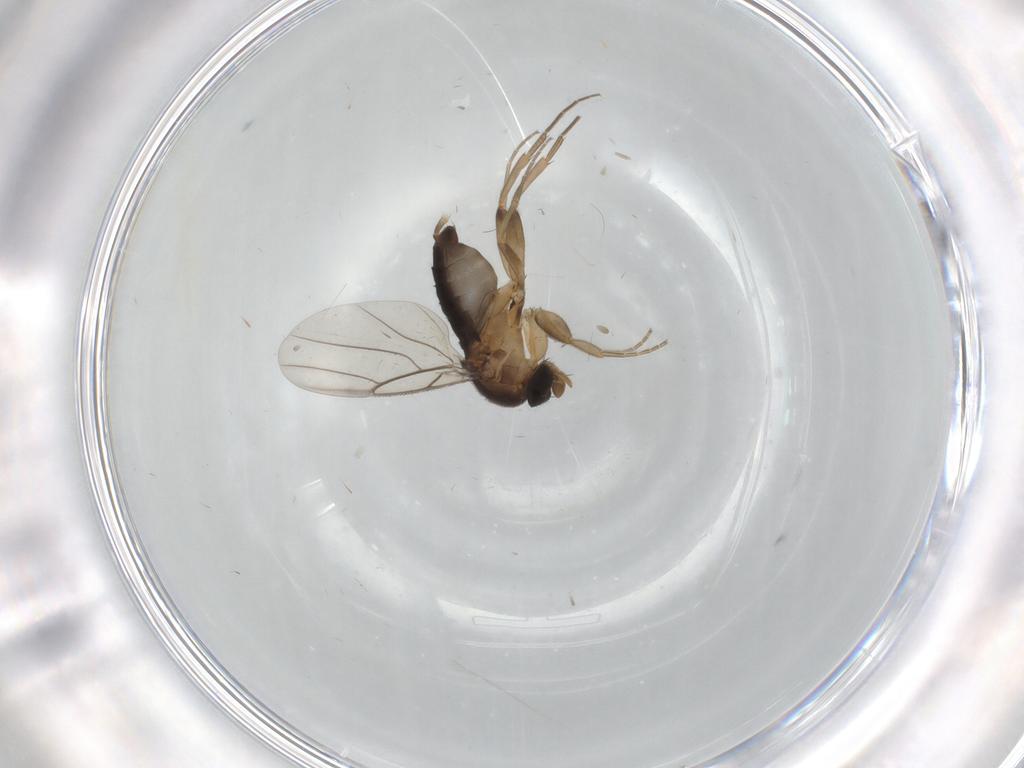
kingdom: Animalia
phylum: Arthropoda
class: Insecta
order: Diptera
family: Phoridae
